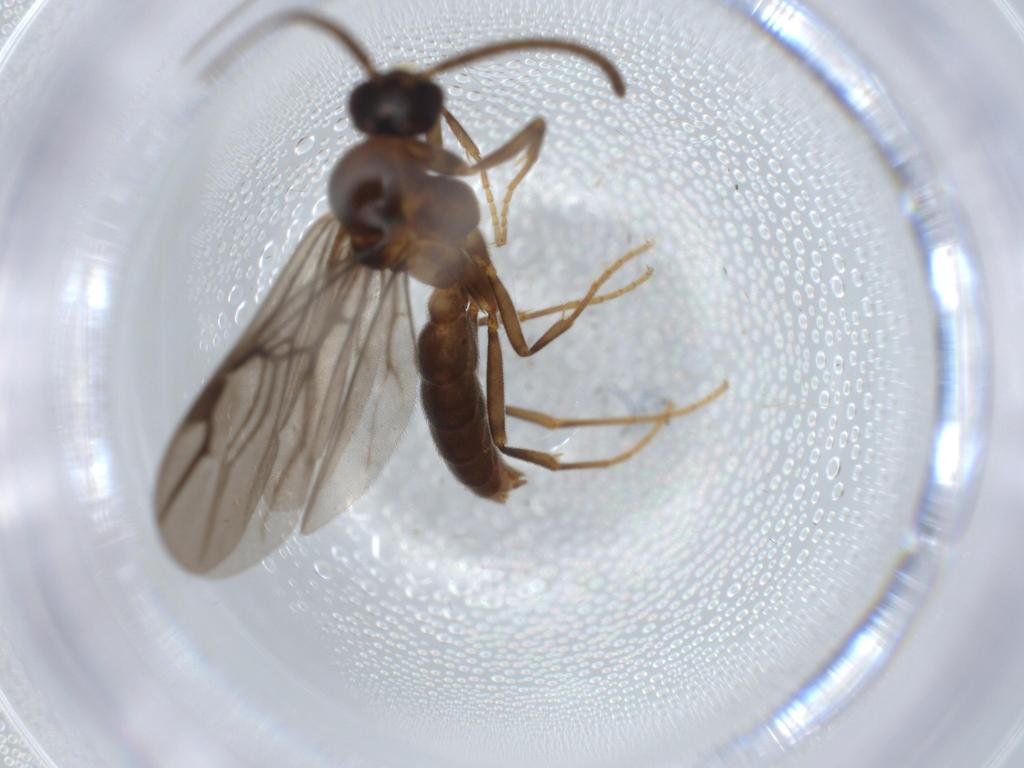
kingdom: Animalia
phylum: Arthropoda
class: Insecta
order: Hymenoptera
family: Formicidae
